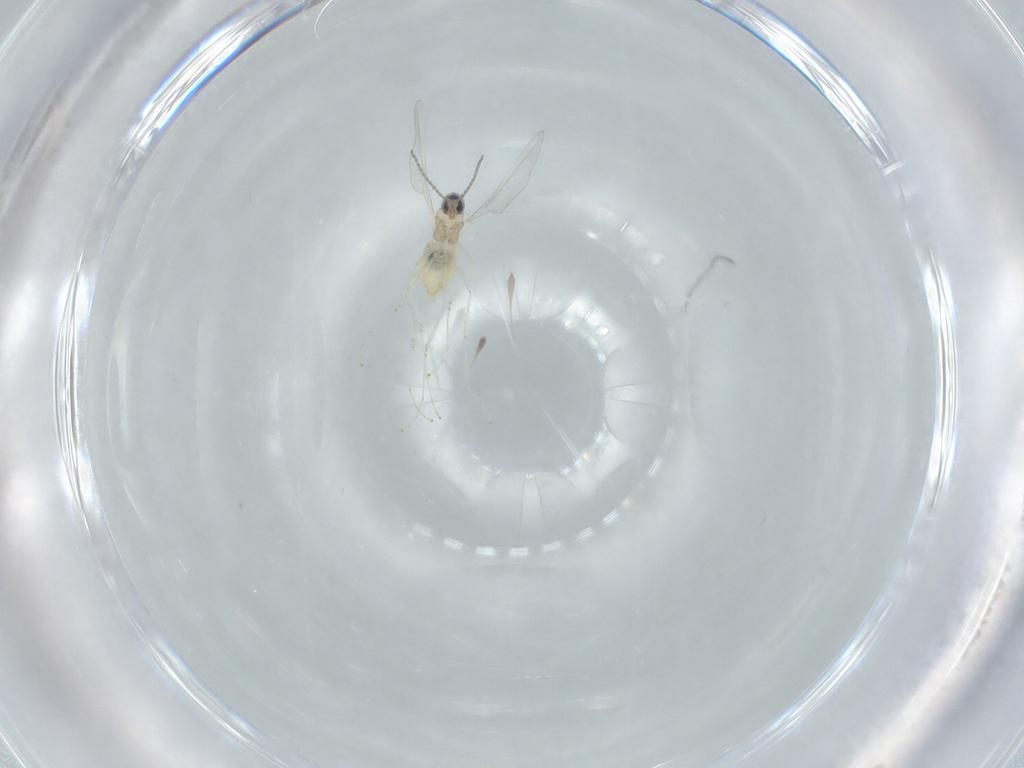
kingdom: Animalia
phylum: Arthropoda
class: Insecta
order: Diptera
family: Cecidomyiidae
